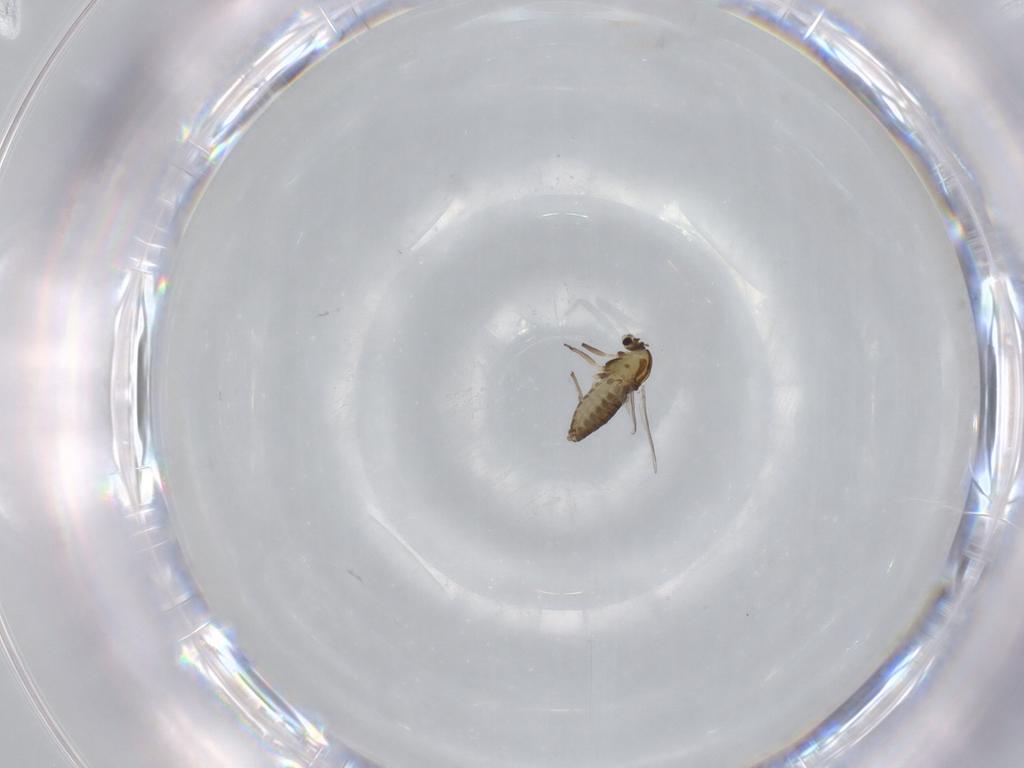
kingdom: Animalia
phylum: Arthropoda
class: Insecta
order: Diptera
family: Chironomidae
